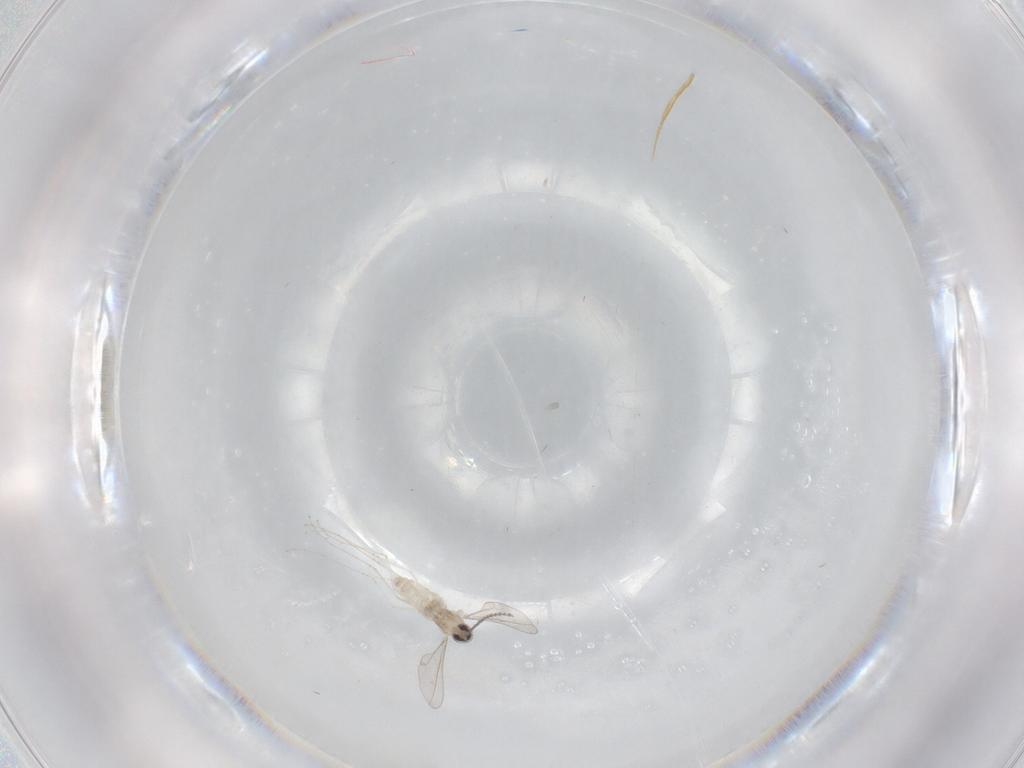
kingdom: Animalia
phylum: Arthropoda
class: Insecta
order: Diptera
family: Cecidomyiidae
